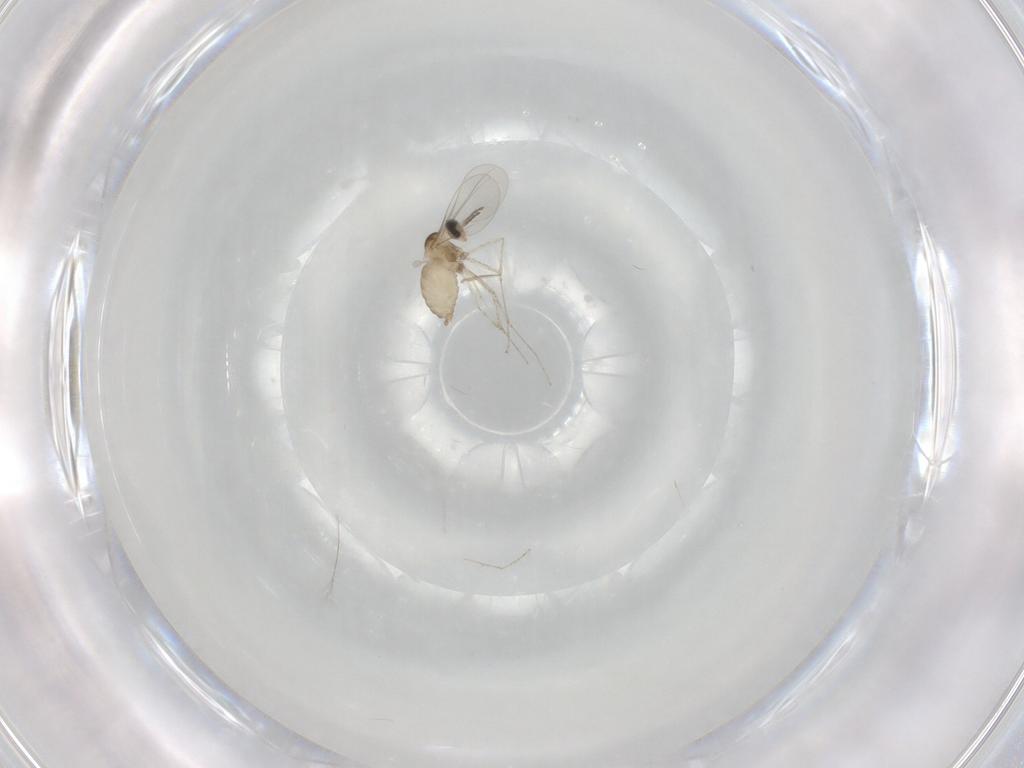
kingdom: Animalia
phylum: Arthropoda
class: Insecta
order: Diptera
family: Cecidomyiidae
